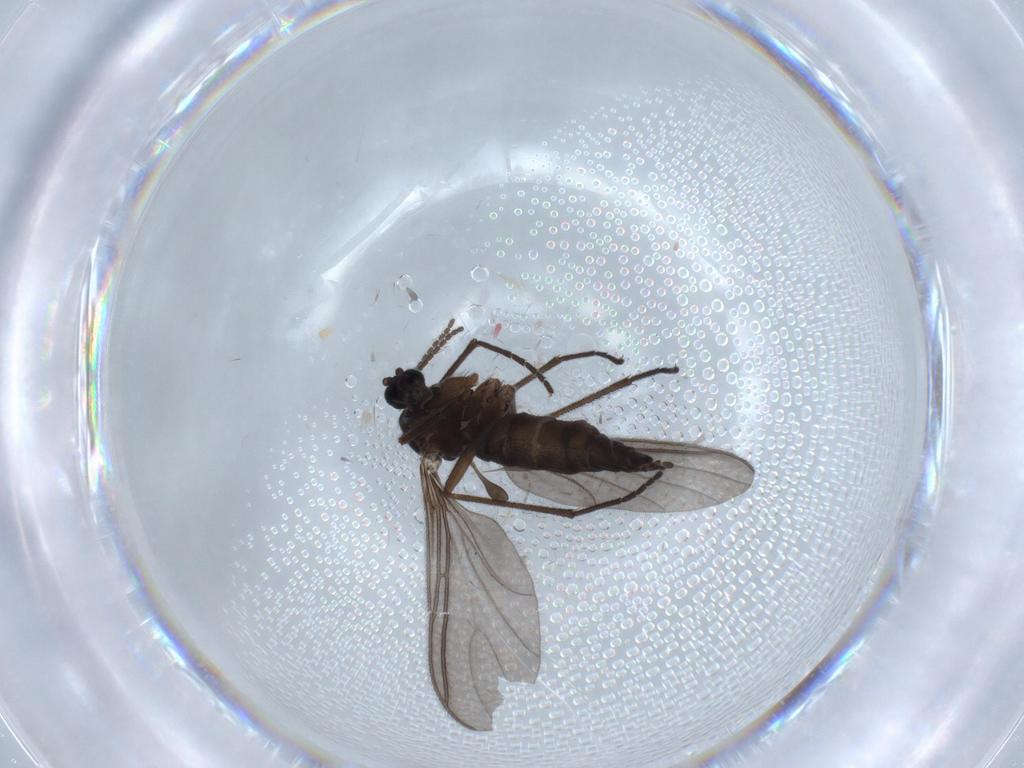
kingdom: Animalia
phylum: Arthropoda
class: Insecta
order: Diptera
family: Sciaridae
